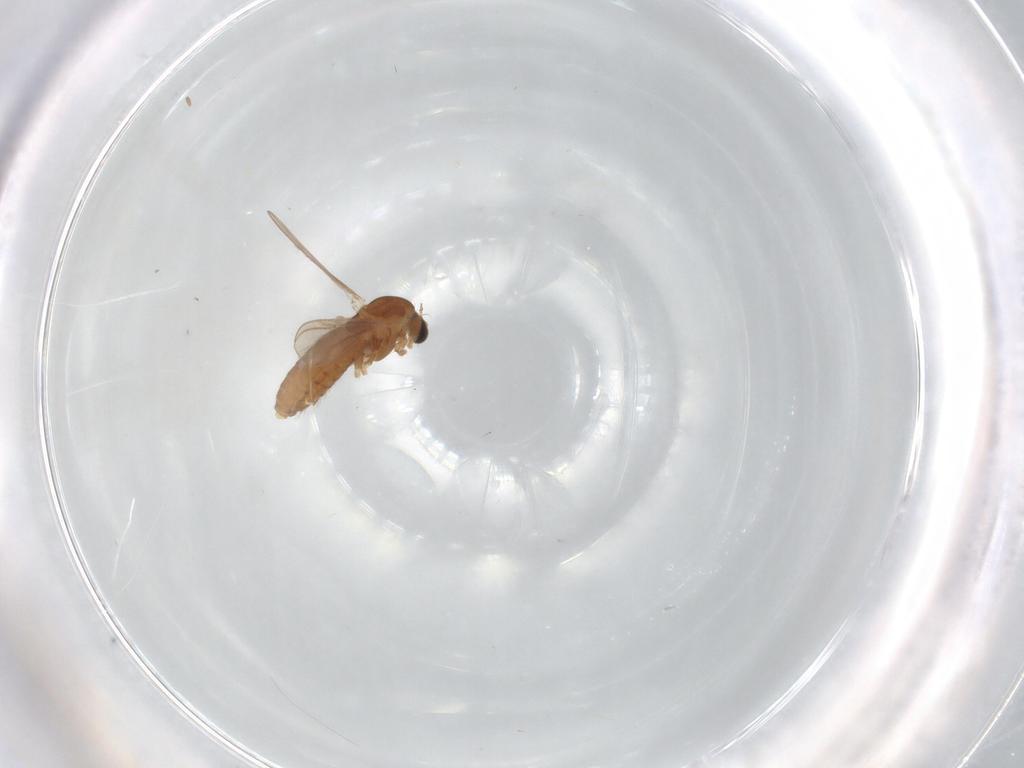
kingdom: Animalia
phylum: Arthropoda
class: Insecta
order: Diptera
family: Chironomidae
